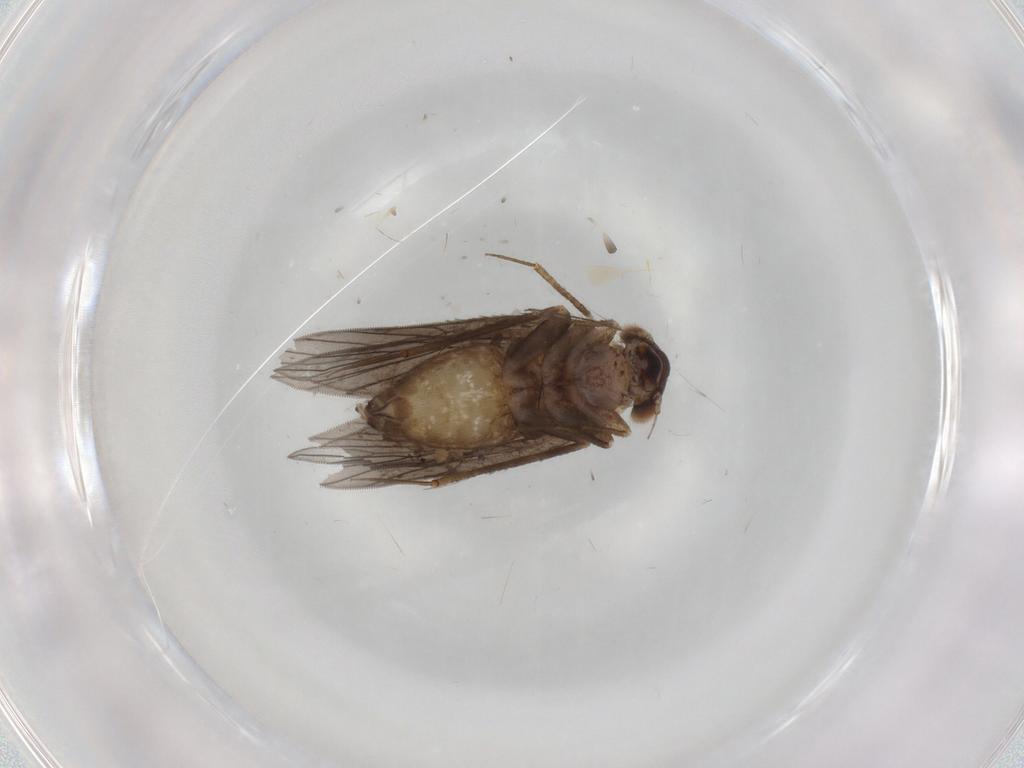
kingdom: Animalia
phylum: Arthropoda
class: Insecta
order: Psocodea
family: Lepidopsocidae
